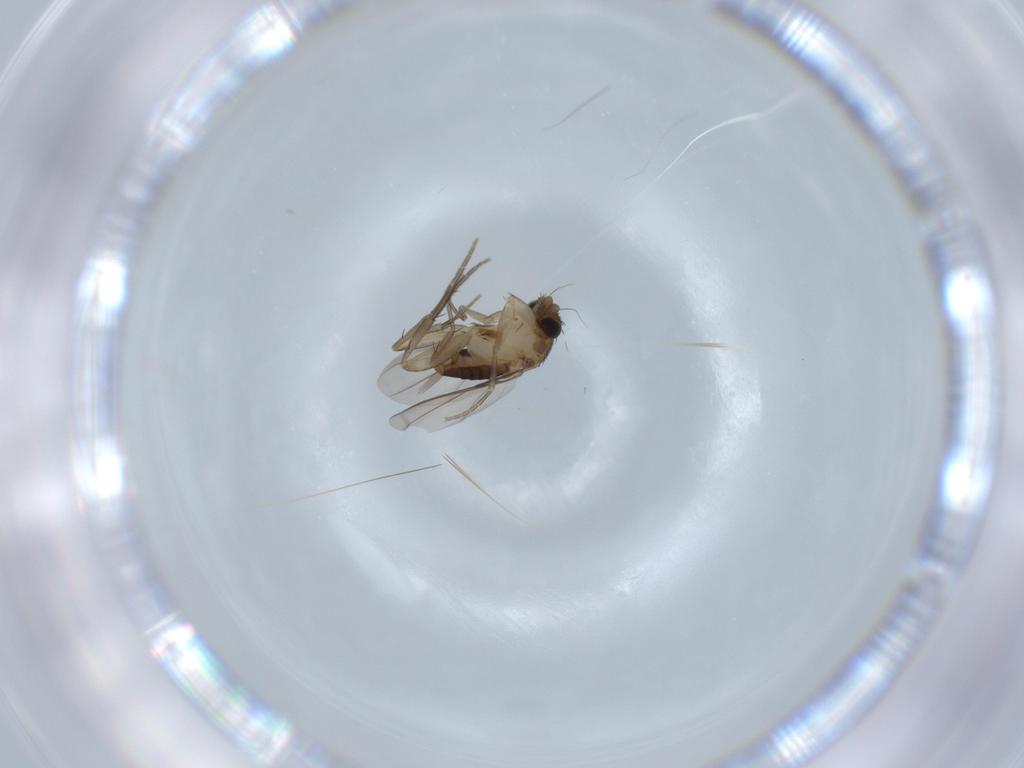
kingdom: Animalia
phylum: Arthropoda
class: Insecta
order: Diptera
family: Phoridae
